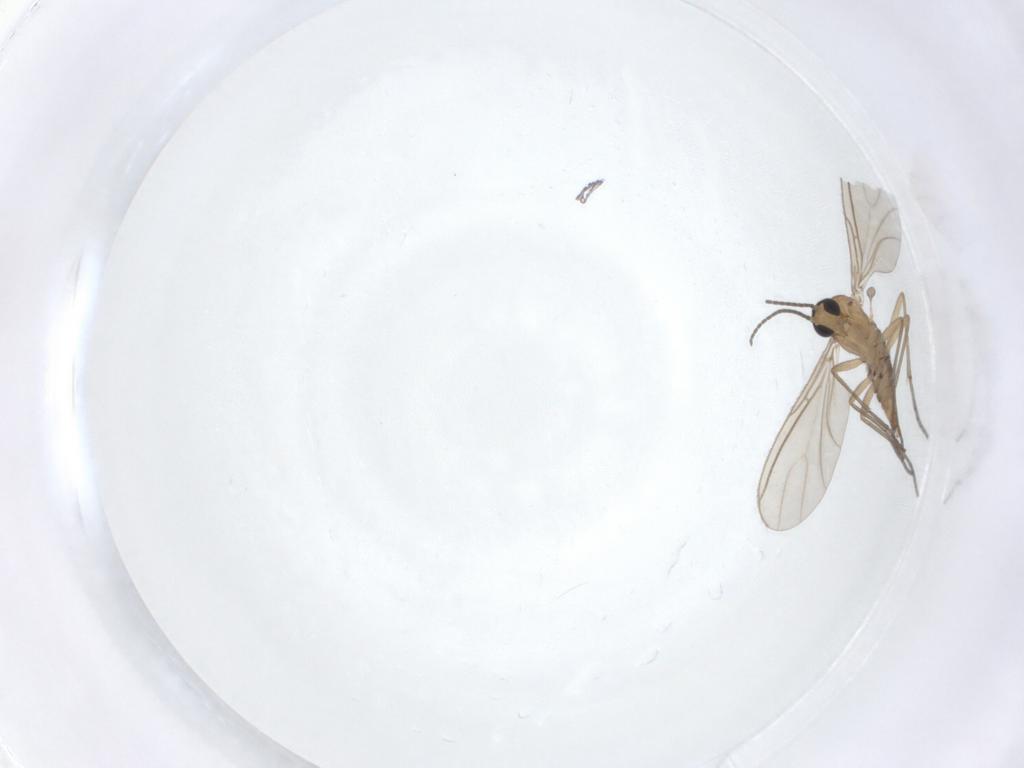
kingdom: Animalia
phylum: Arthropoda
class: Insecta
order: Diptera
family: Sciaridae
